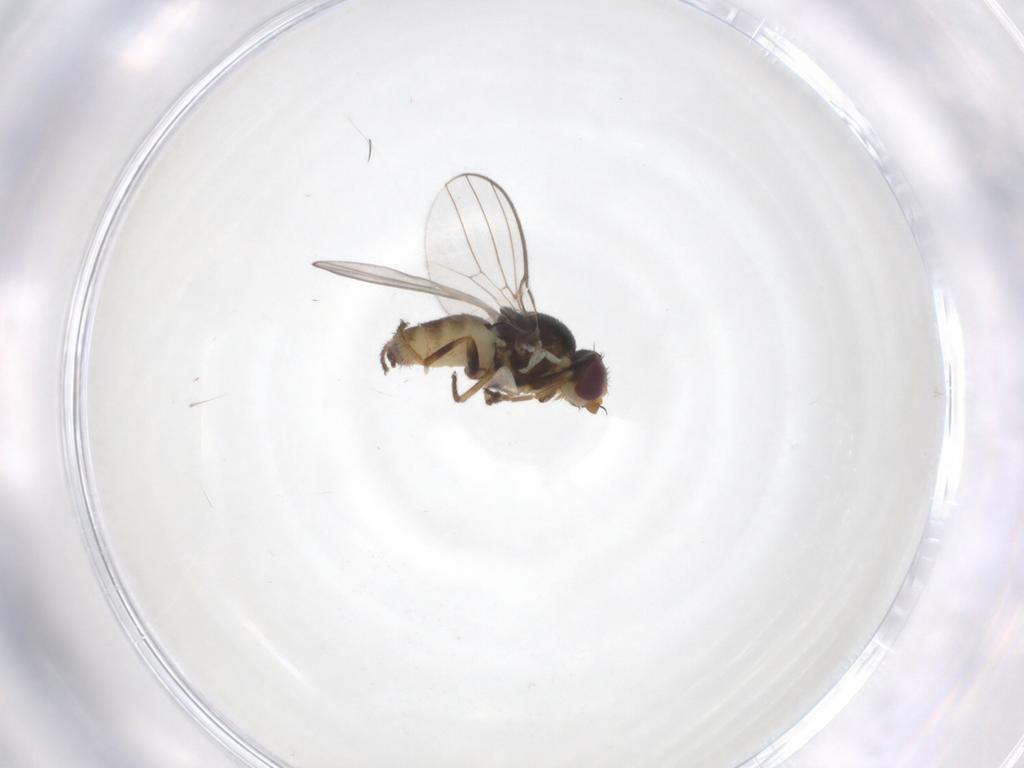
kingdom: Animalia
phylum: Arthropoda
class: Insecta
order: Diptera
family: Chloropidae
